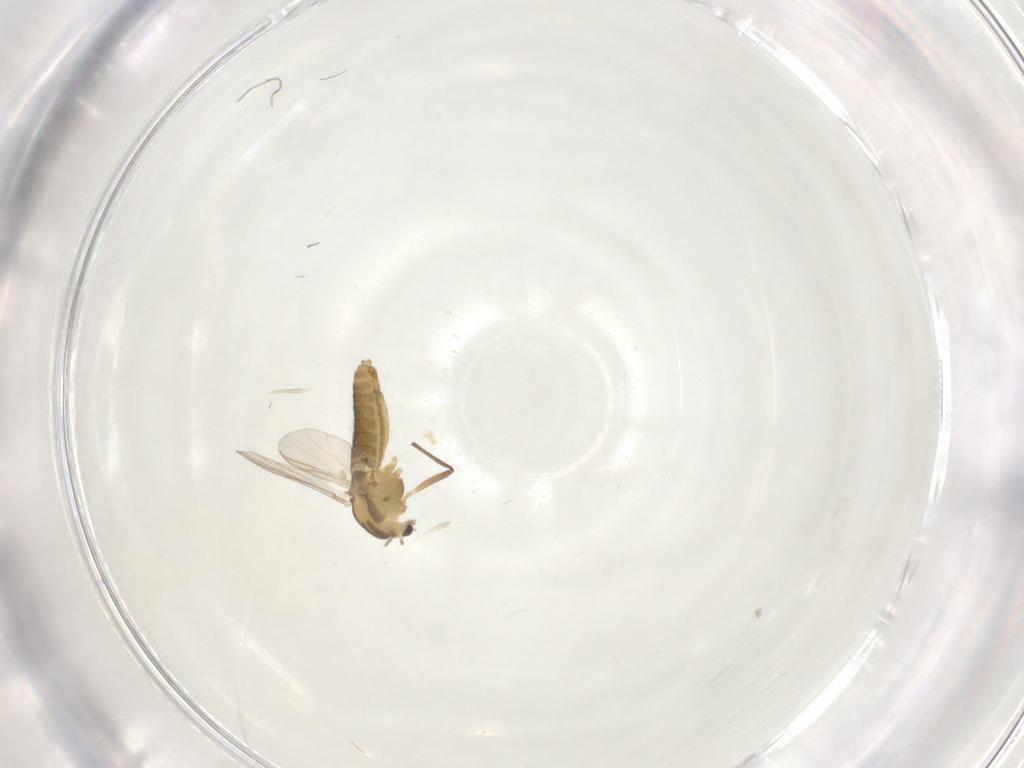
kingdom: Animalia
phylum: Arthropoda
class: Insecta
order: Diptera
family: Chironomidae
